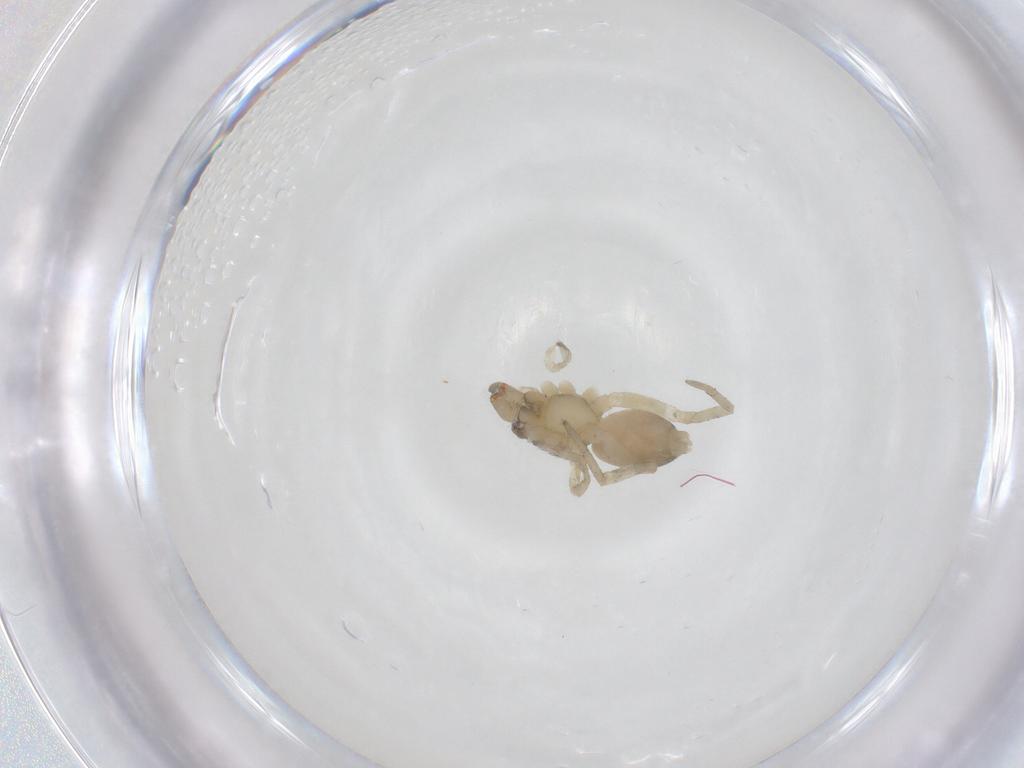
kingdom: Animalia
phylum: Arthropoda
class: Arachnida
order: Araneae
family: Anyphaenidae
